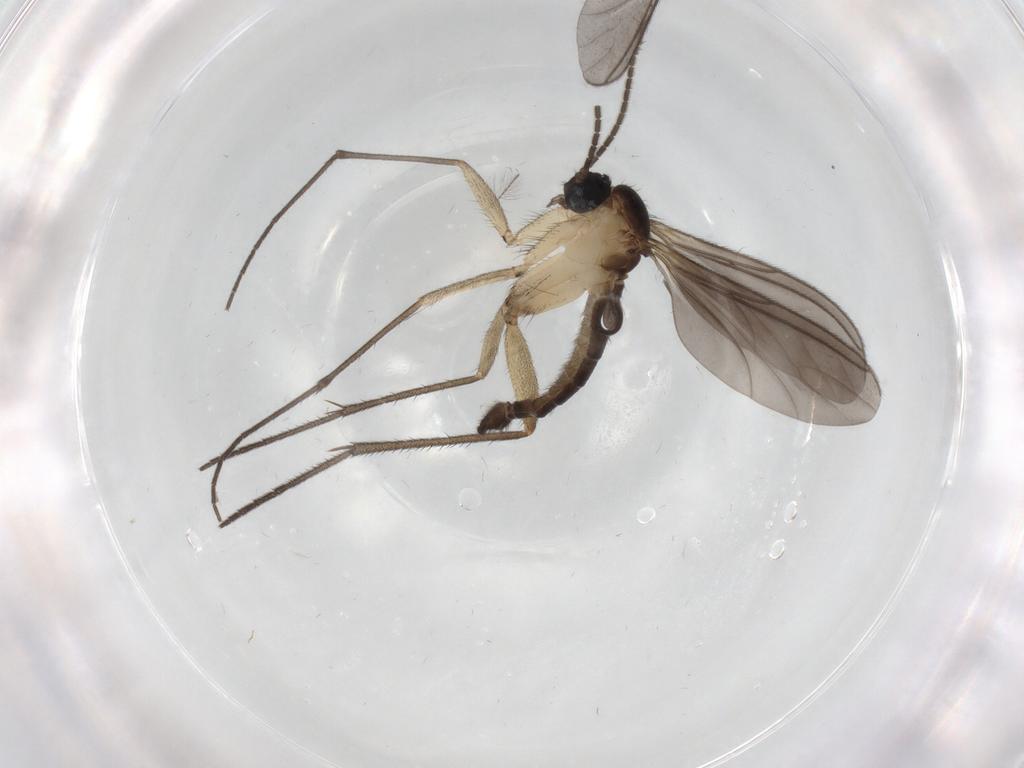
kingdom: Animalia
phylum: Arthropoda
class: Insecta
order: Diptera
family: Sciaridae
